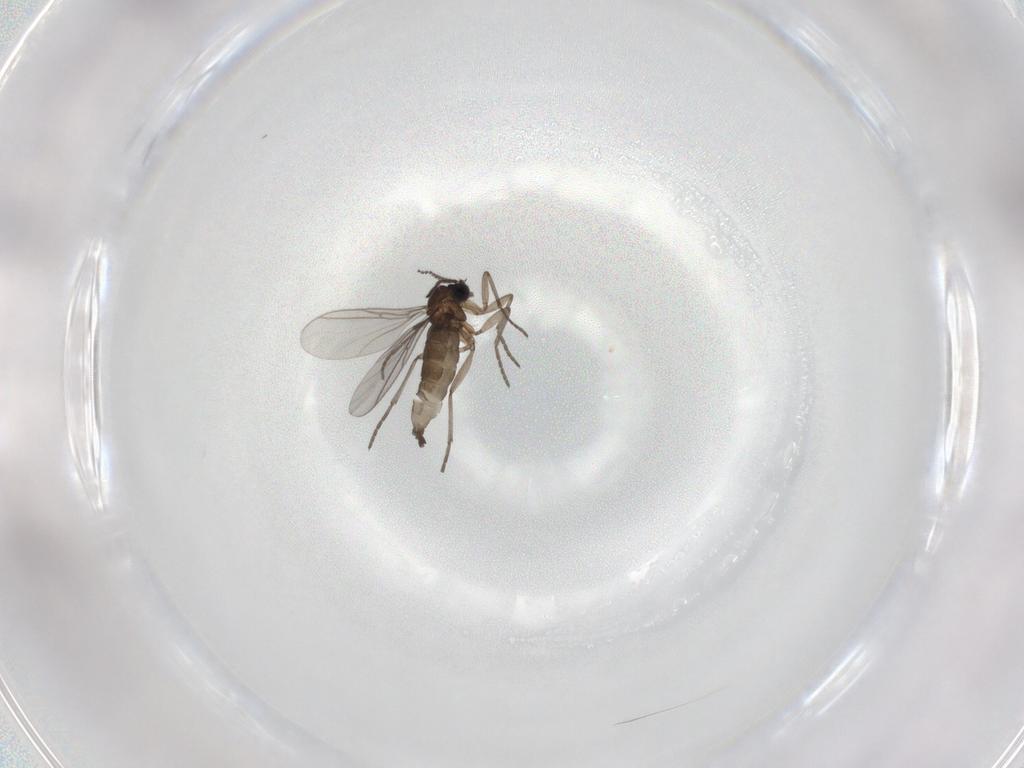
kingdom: Animalia
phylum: Arthropoda
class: Insecta
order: Diptera
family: Sciaridae
